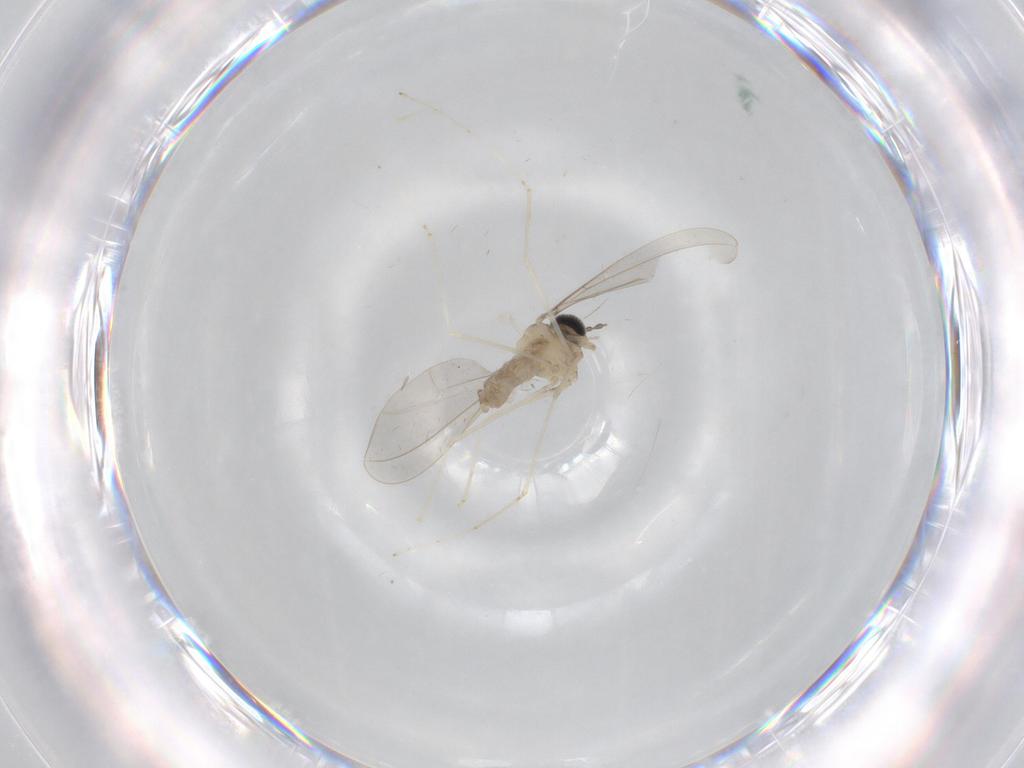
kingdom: Animalia
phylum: Arthropoda
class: Insecta
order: Diptera
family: Cecidomyiidae
